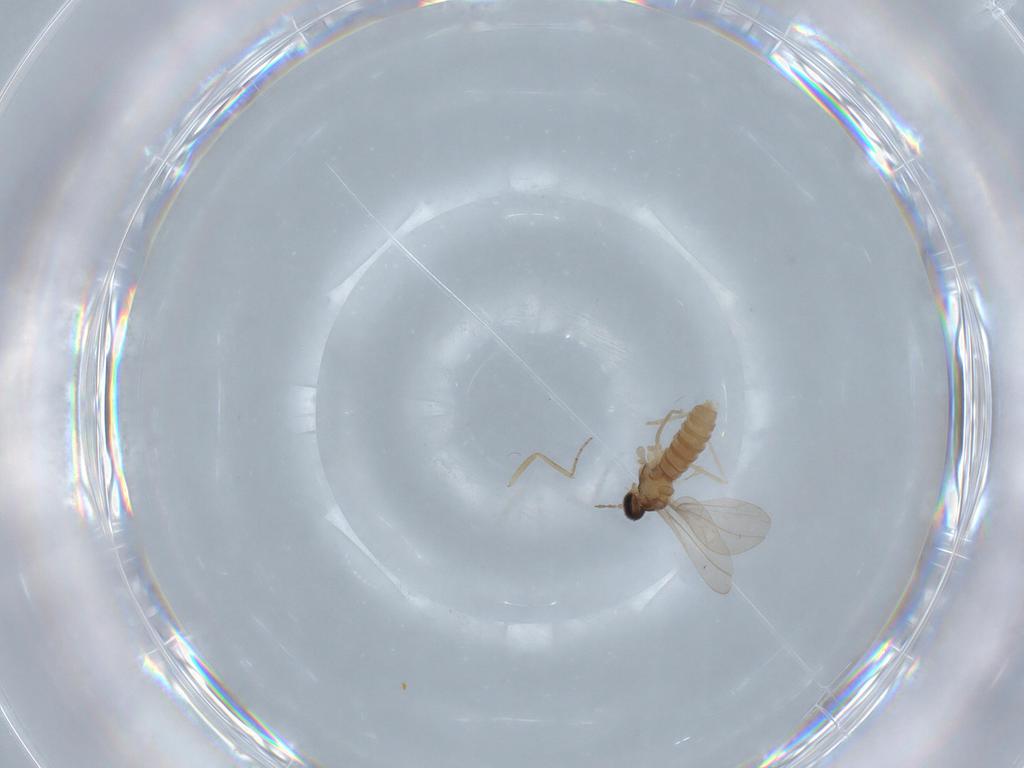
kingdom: Animalia
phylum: Arthropoda
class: Insecta
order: Diptera
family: Cecidomyiidae
